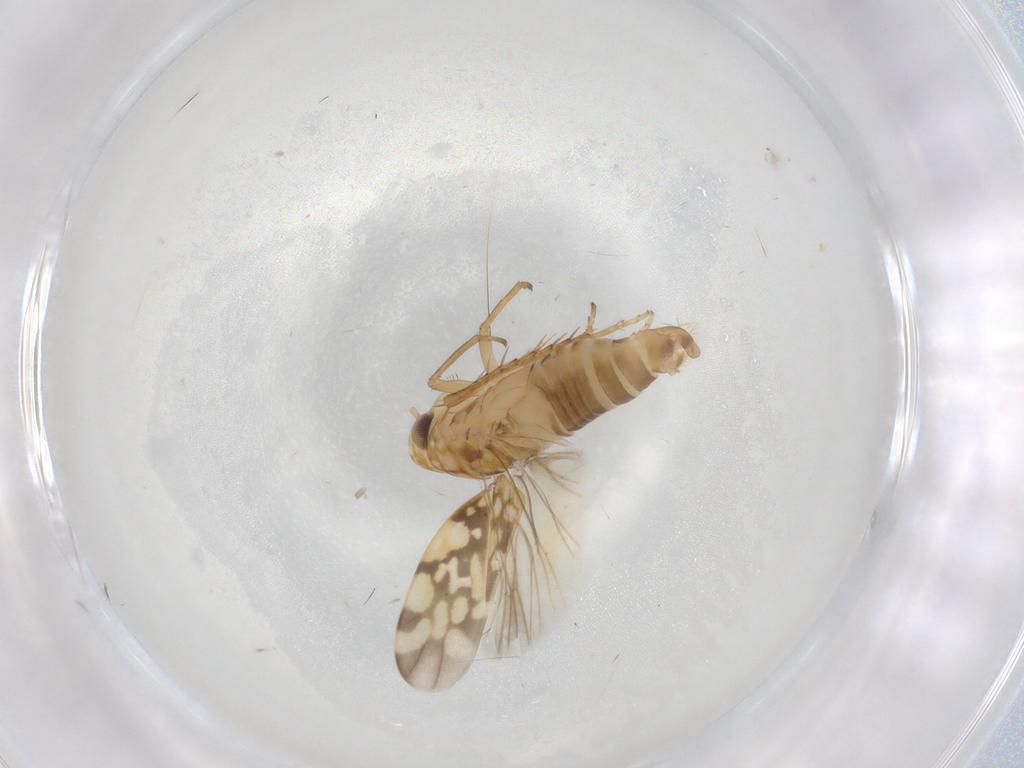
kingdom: Animalia
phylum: Arthropoda
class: Insecta
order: Hemiptera
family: Cicadellidae
